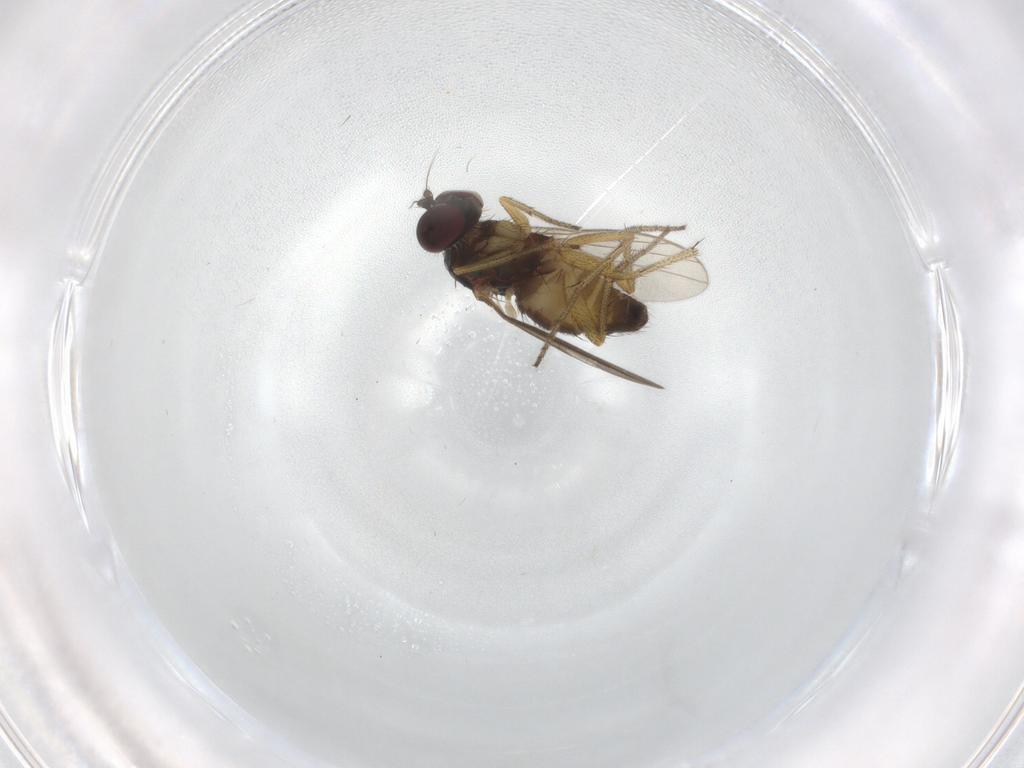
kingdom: Animalia
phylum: Arthropoda
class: Insecta
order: Diptera
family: Dolichopodidae
